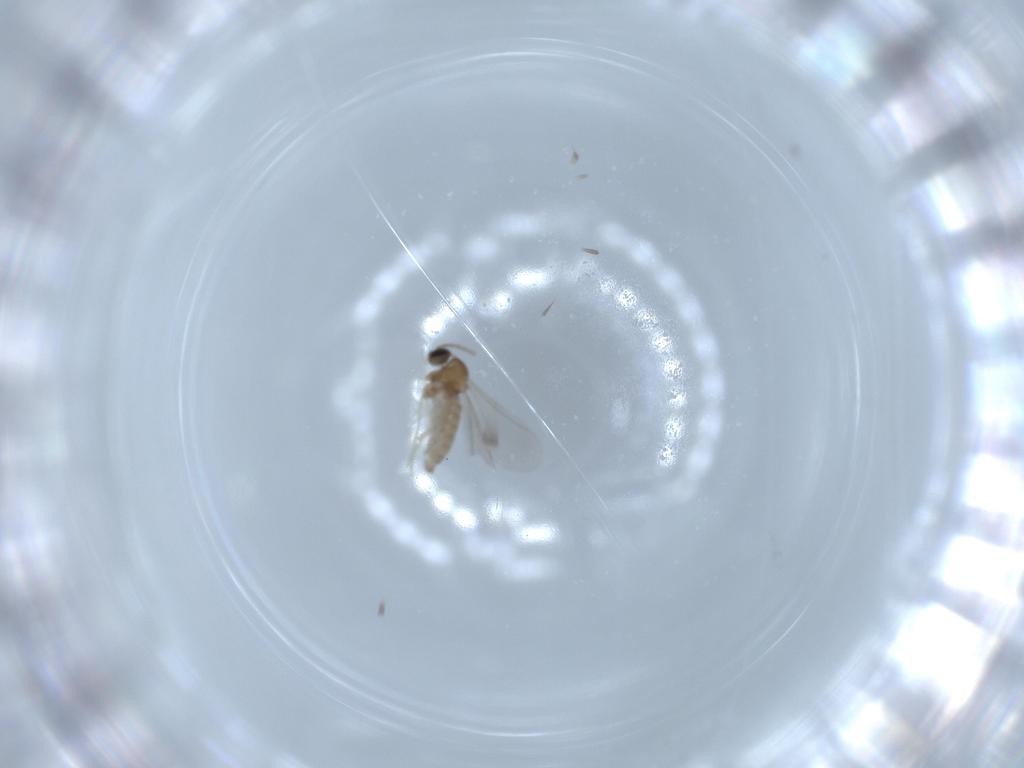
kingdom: Animalia
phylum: Arthropoda
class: Insecta
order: Diptera
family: Cecidomyiidae
